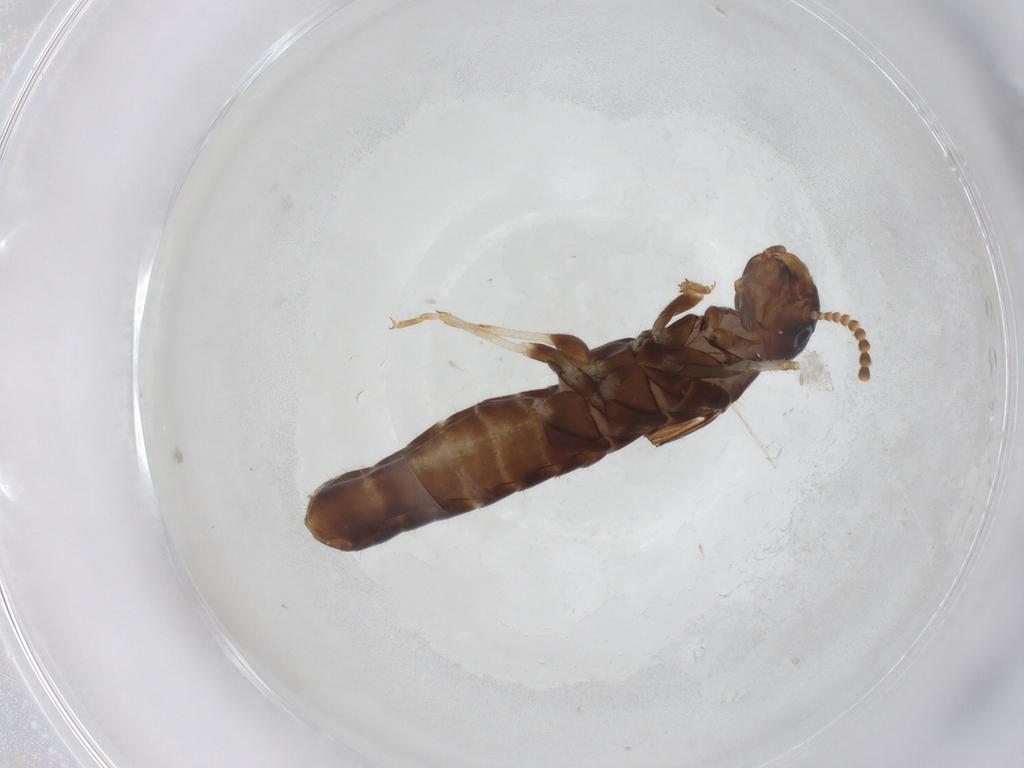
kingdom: Animalia
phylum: Arthropoda
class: Insecta
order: Blattodea
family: Kalotermitidae
